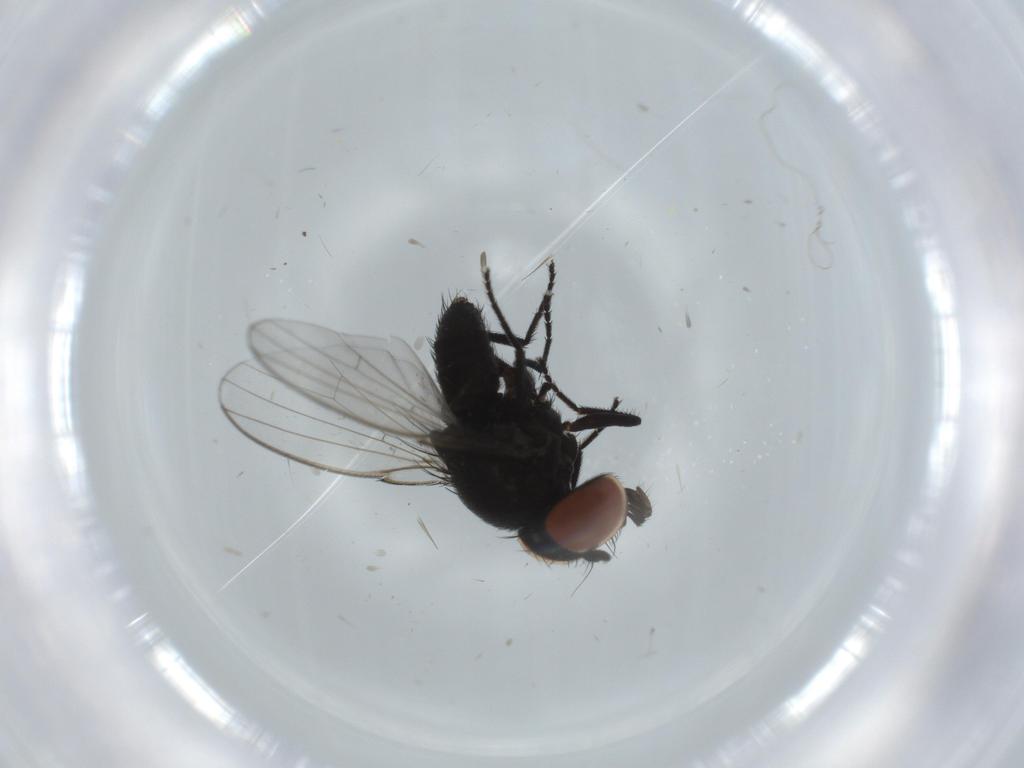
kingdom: Animalia
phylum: Arthropoda
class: Insecta
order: Diptera
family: Milichiidae
